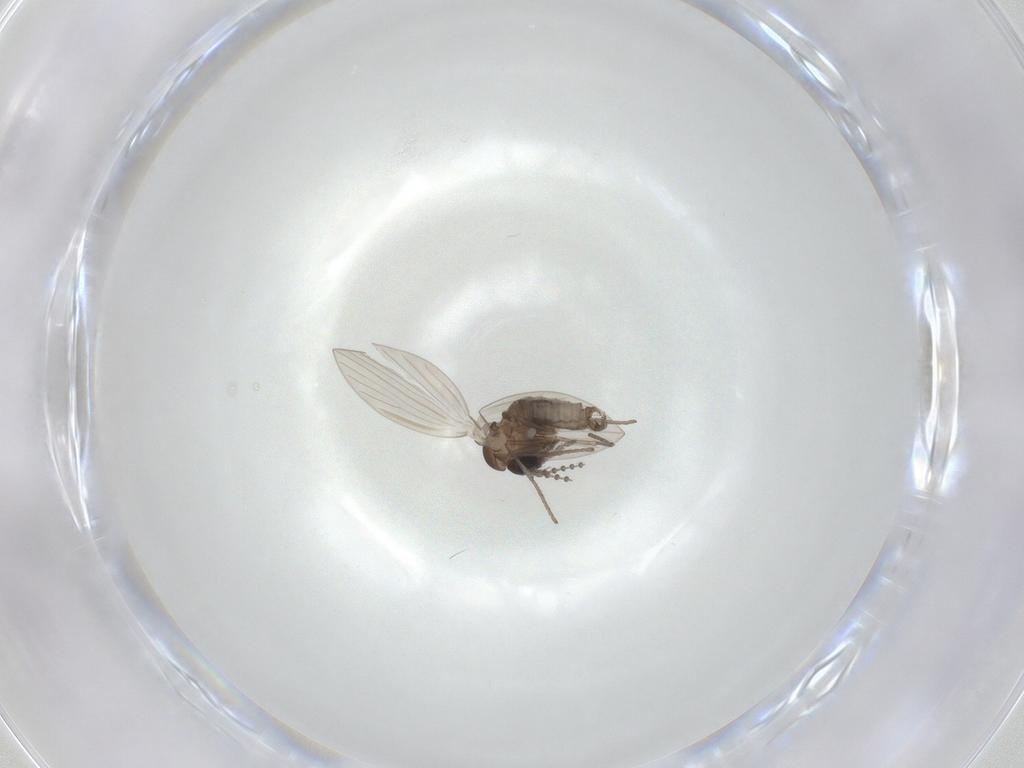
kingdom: Animalia
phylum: Arthropoda
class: Insecta
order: Diptera
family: Psychodidae
